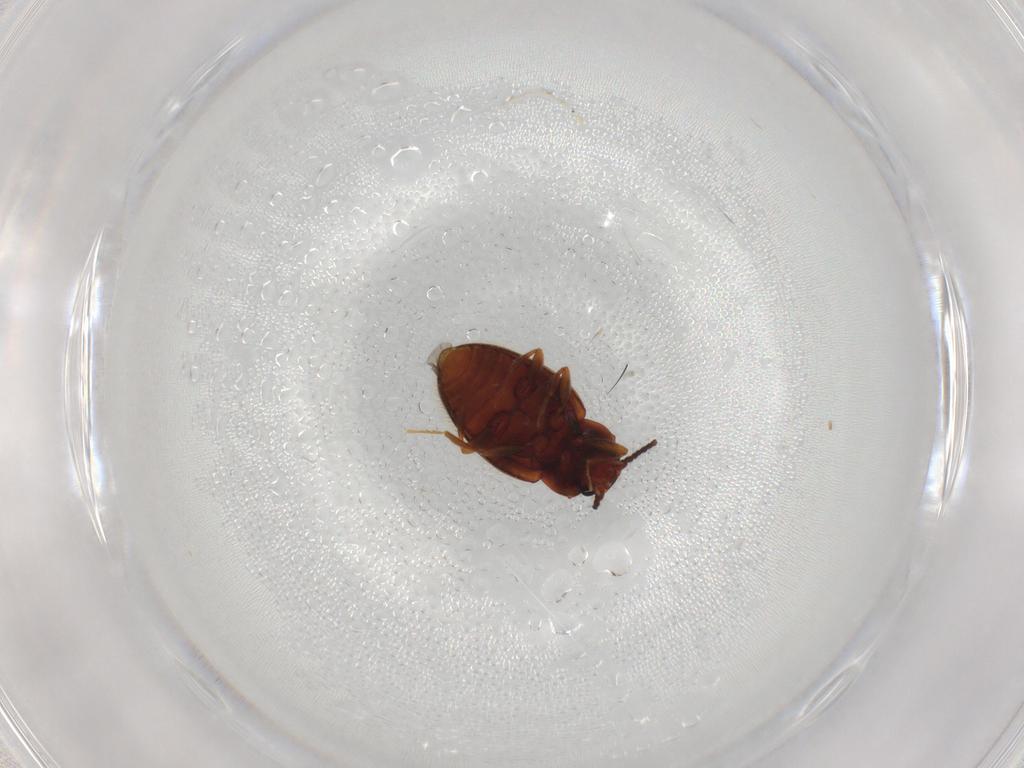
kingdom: Animalia
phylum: Arthropoda
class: Insecta
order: Coleoptera
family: Erotylidae
